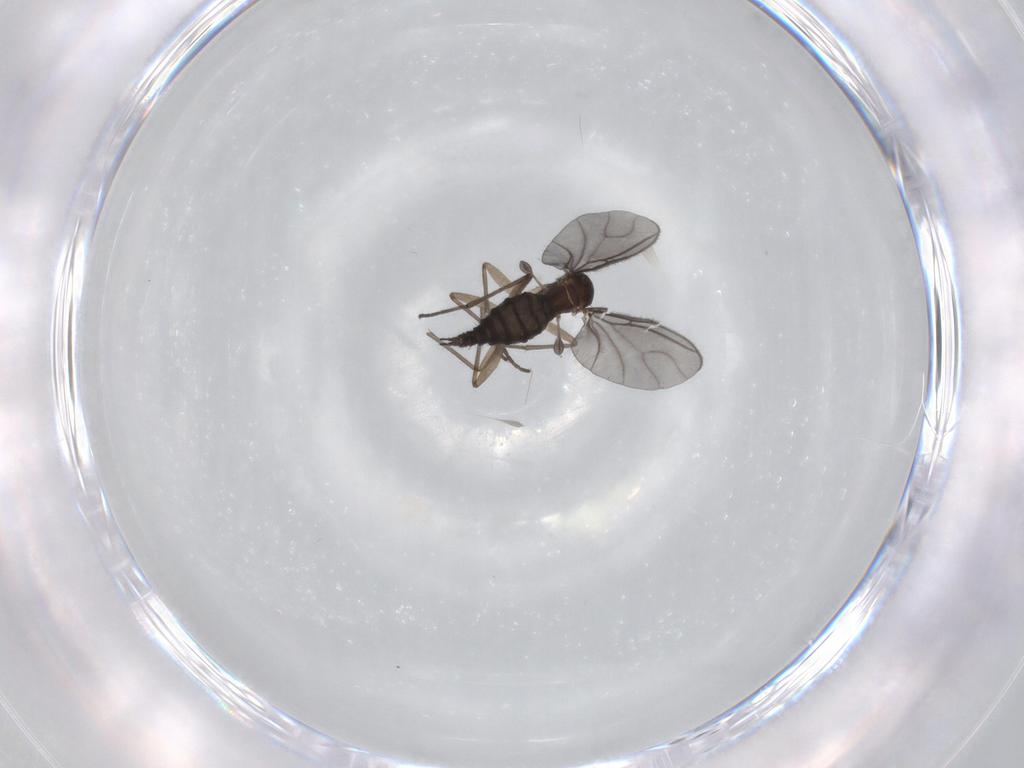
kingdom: Animalia
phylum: Arthropoda
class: Insecta
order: Diptera
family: Sciaridae
